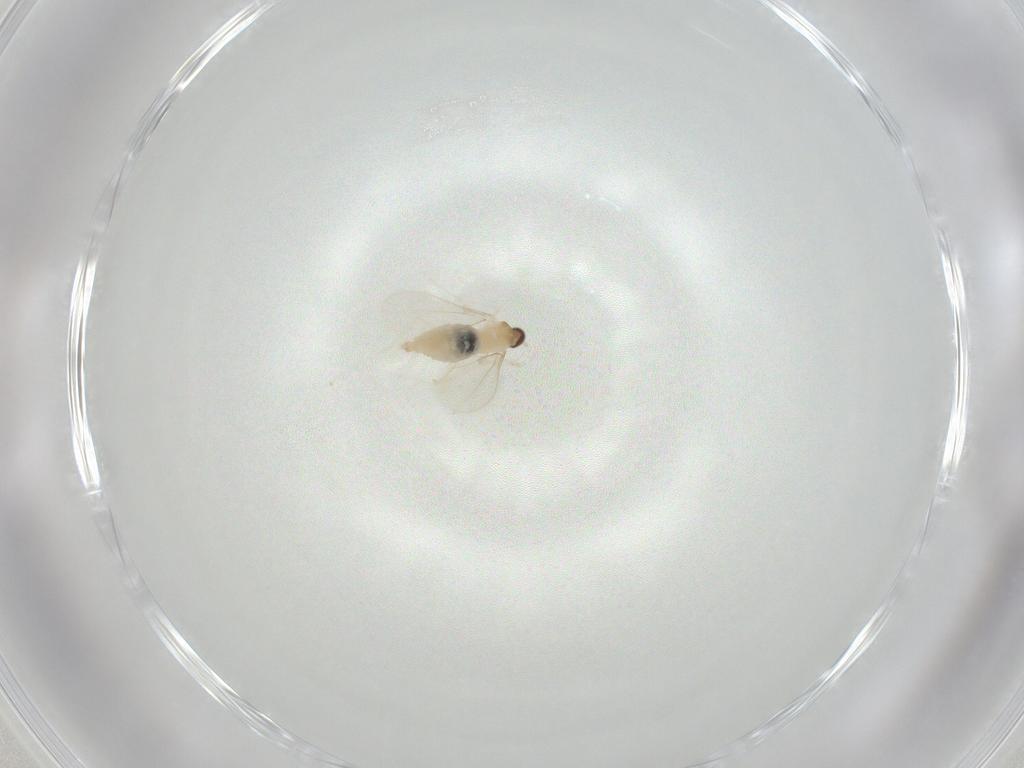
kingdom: Animalia
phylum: Arthropoda
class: Insecta
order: Diptera
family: Cecidomyiidae
